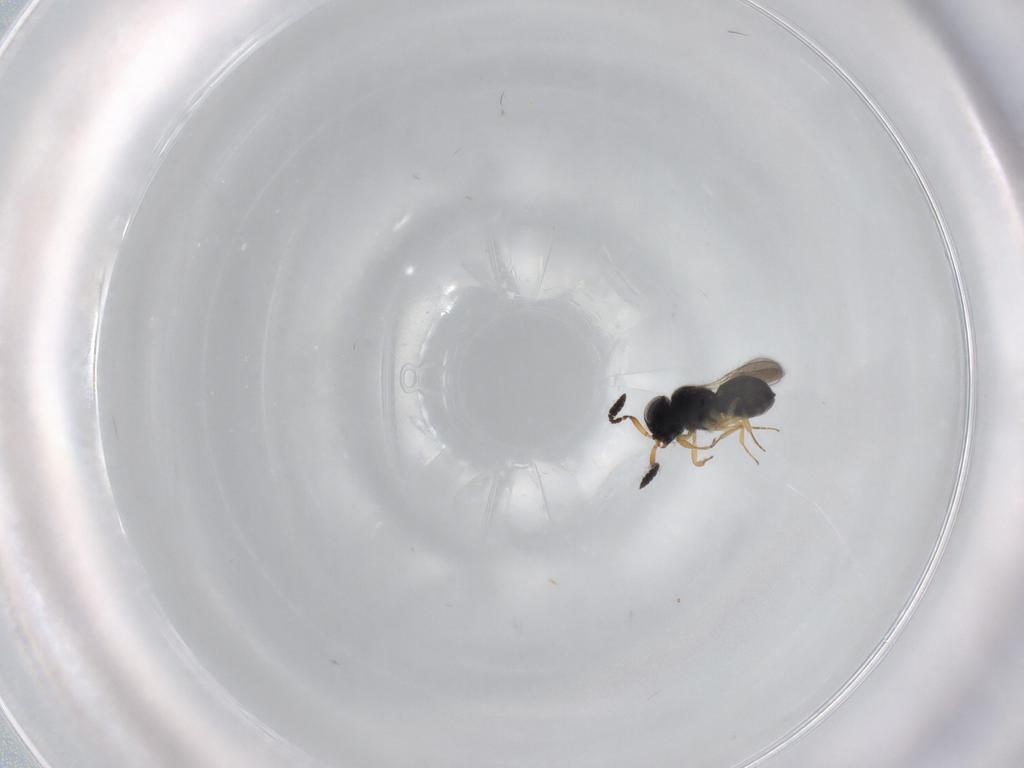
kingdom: Animalia
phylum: Arthropoda
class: Insecta
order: Hymenoptera
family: Scelionidae
